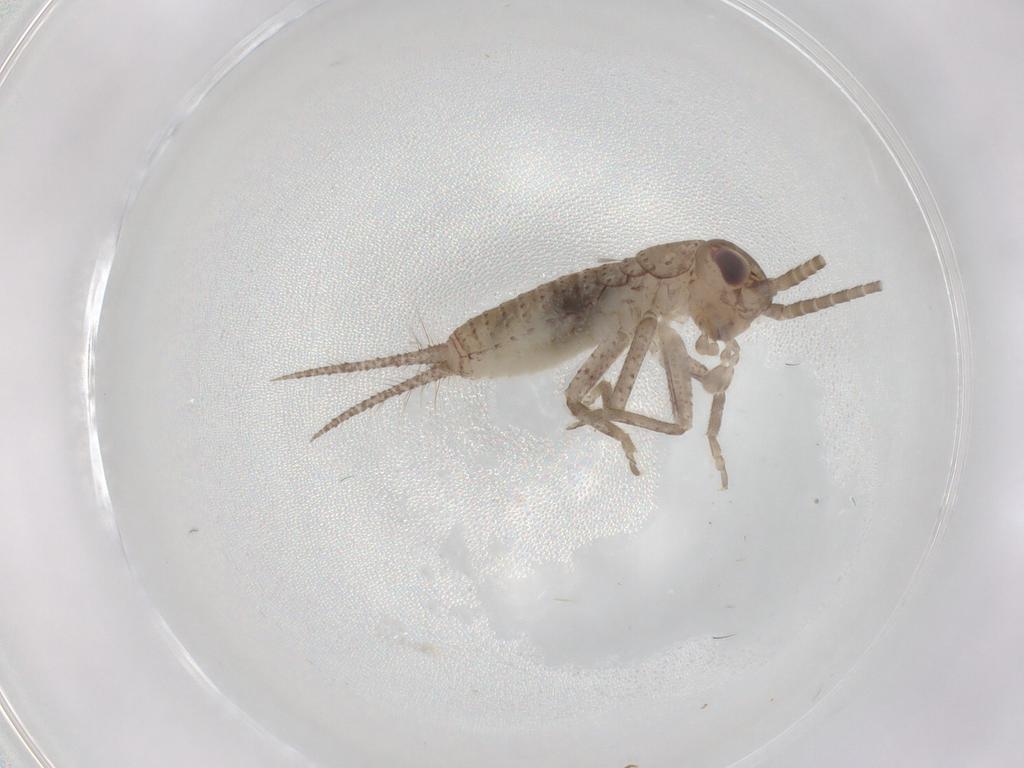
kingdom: Animalia
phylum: Arthropoda
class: Insecta
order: Orthoptera
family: Gryllidae
